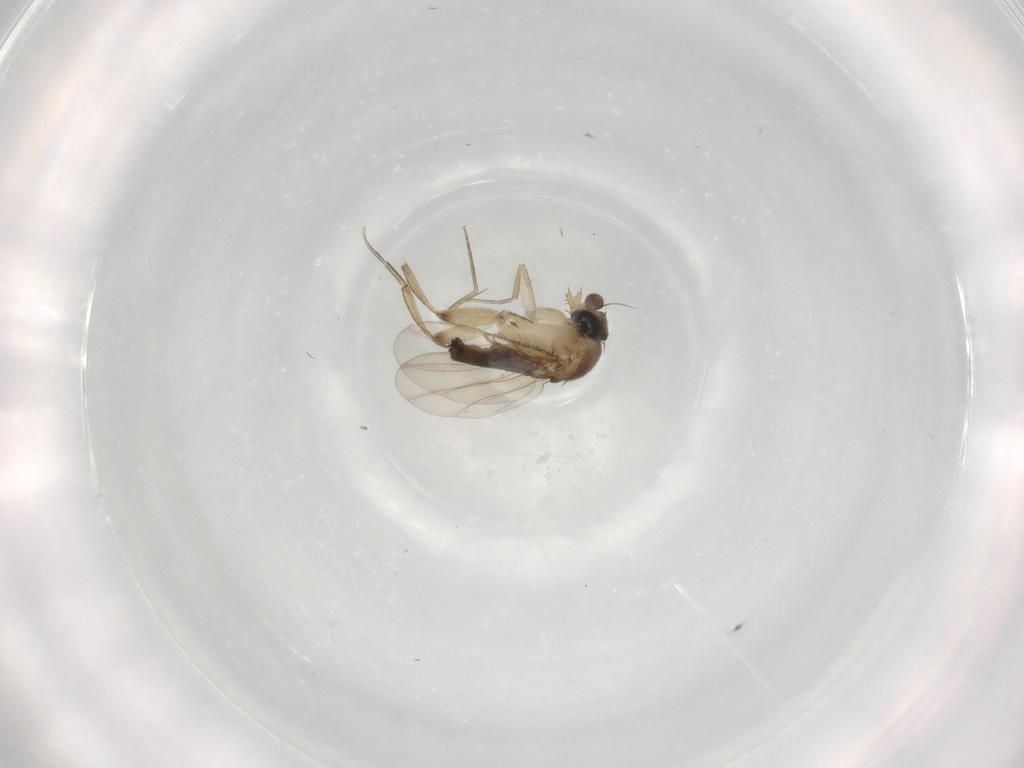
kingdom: Animalia
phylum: Arthropoda
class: Insecta
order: Diptera
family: Phoridae
